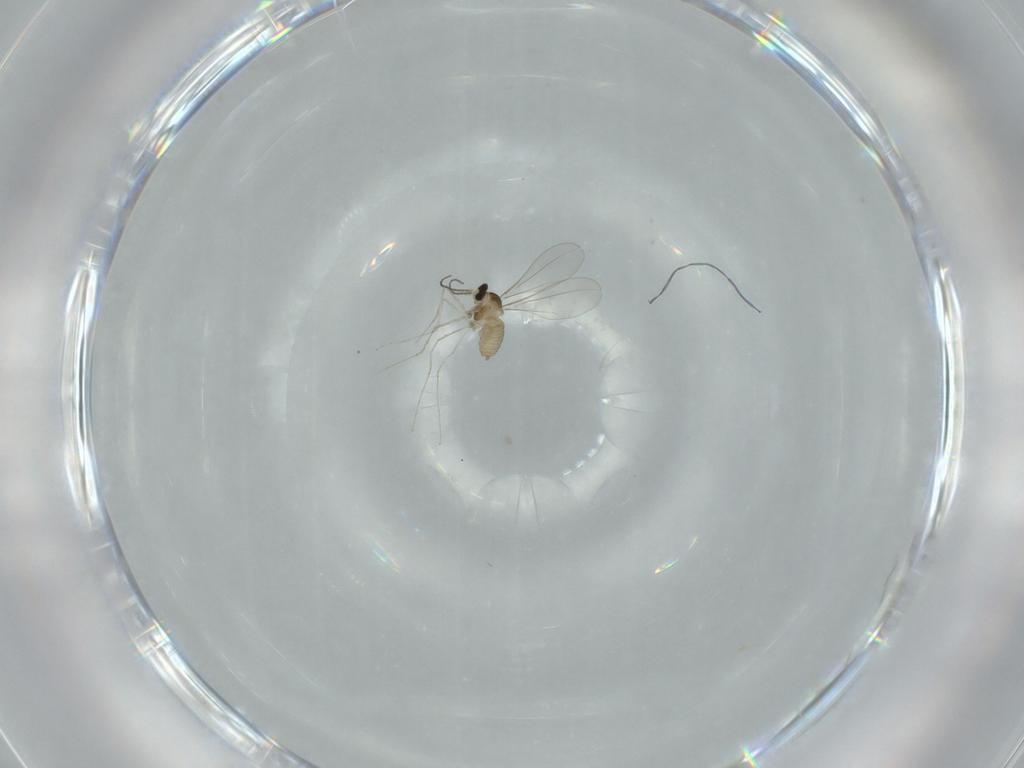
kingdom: Animalia
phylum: Arthropoda
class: Insecta
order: Diptera
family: Cecidomyiidae
